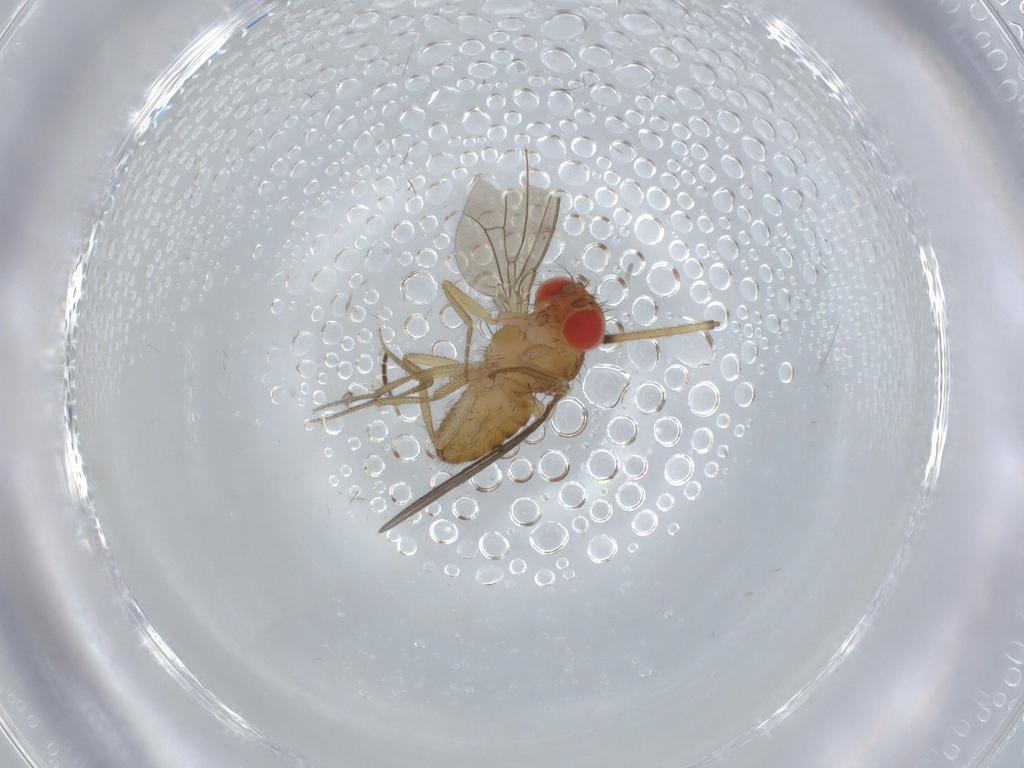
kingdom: Animalia
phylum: Arthropoda
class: Insecta
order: Diptera
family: Drosophilidae
